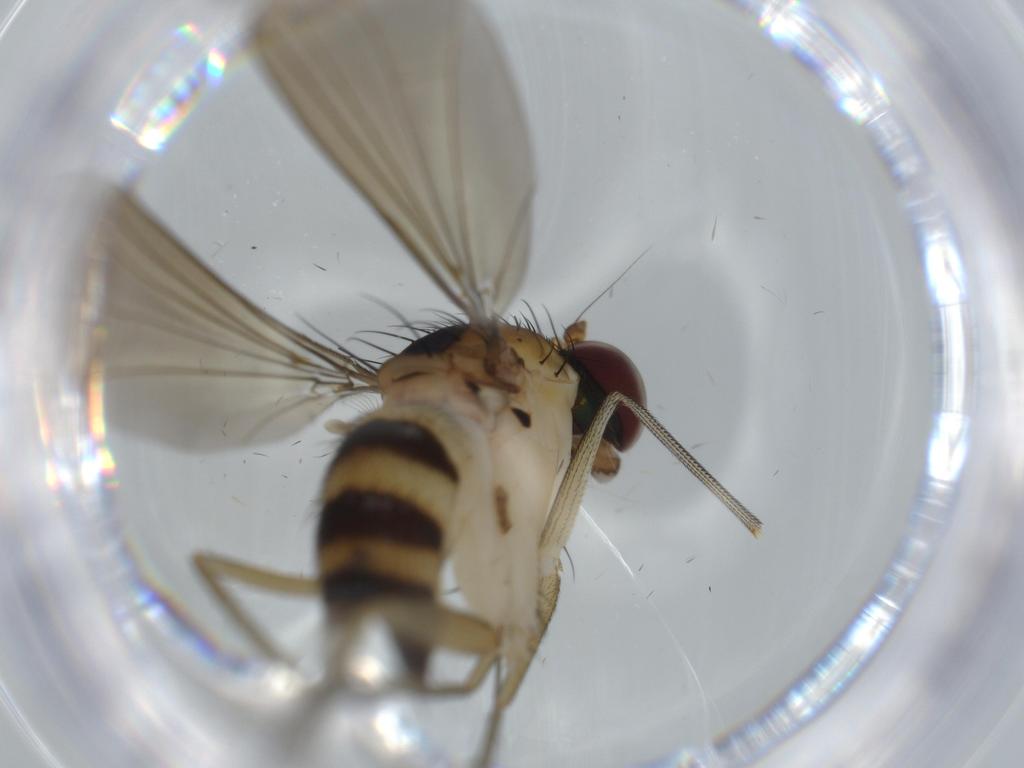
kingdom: Animalia
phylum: Arthropoda
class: Insecta
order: Diptera
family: Dolichopodidae
